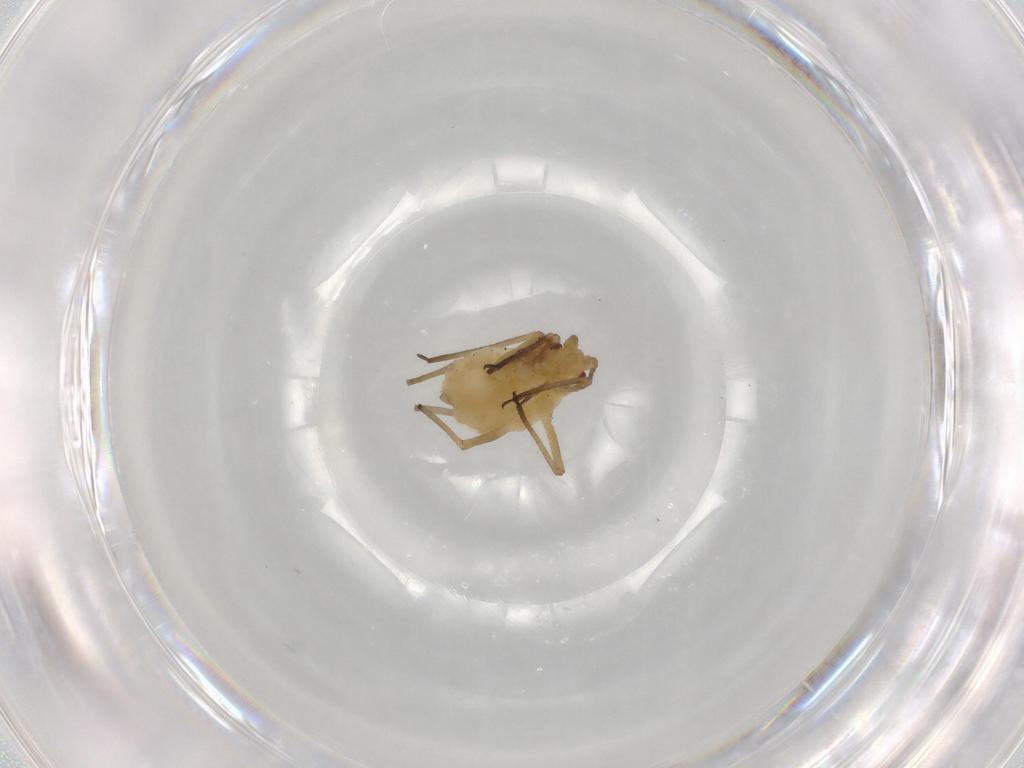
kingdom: Animalia
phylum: Arthropoda
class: Insecta
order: Hemiptera
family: Aphididae
